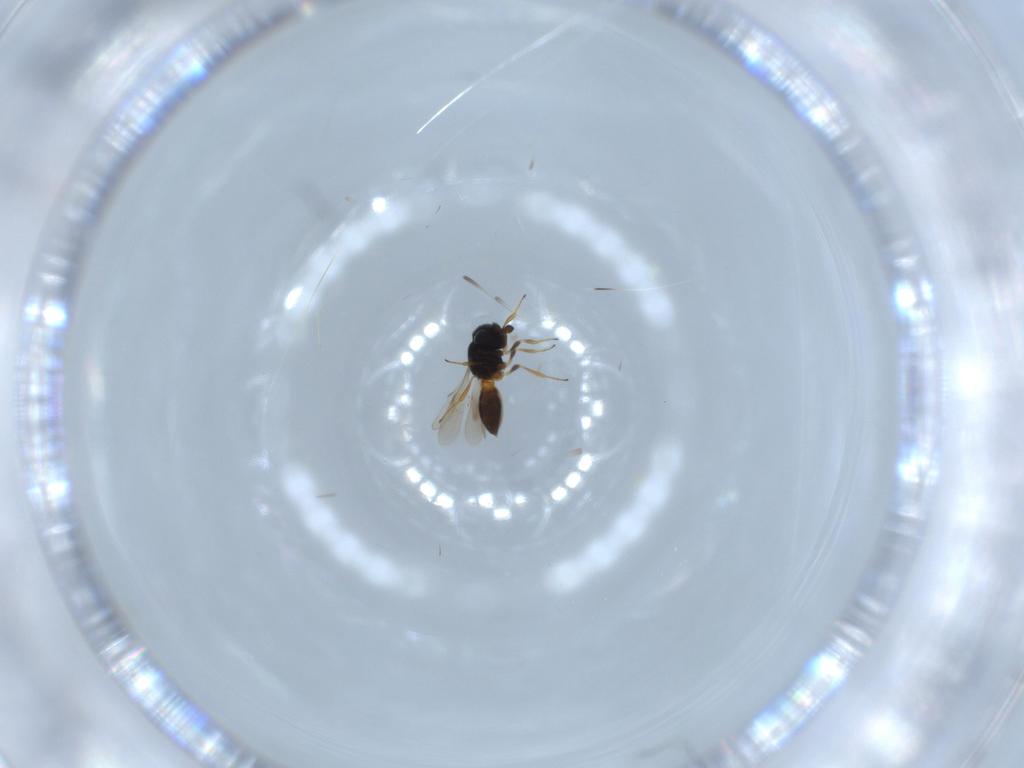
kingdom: Animalia
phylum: Arthropoda
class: Insecta
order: Hymenoptera
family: Scelionidae
